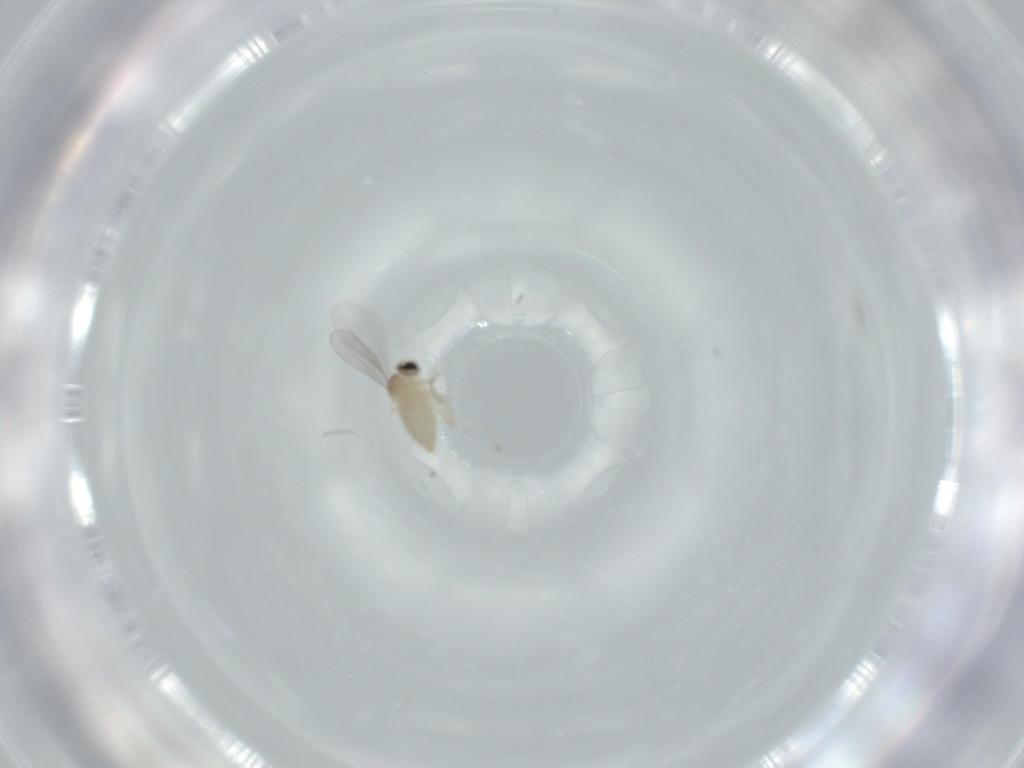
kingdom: Animalia
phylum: Arthropoda
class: Insecta
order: Diptera
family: Cecidomyiidae
